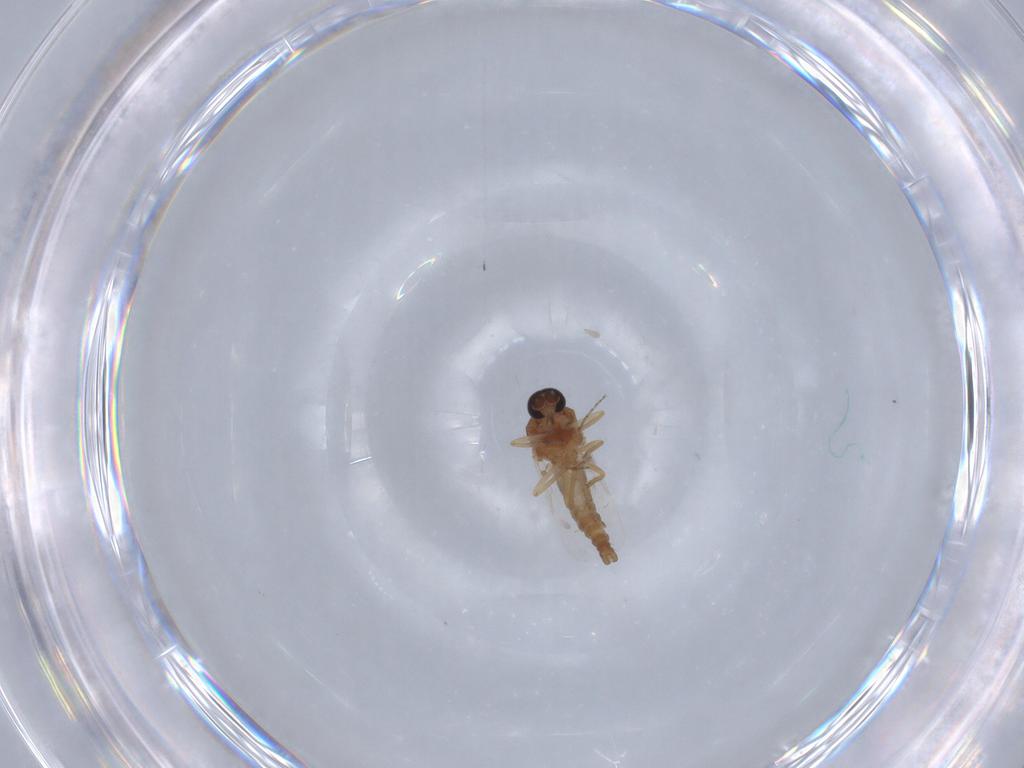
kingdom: Animalia
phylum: Arthropoda
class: Insecta
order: Diptera
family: Ceratopogonidae
